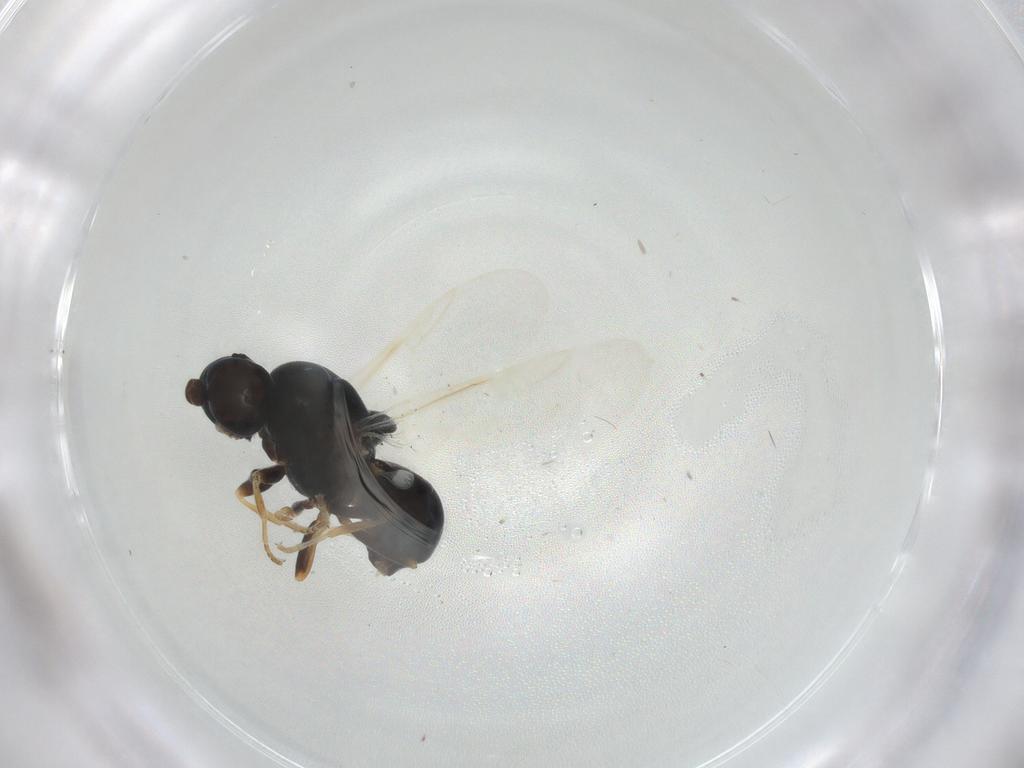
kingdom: Animalia
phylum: Arthropoda
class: Insecta
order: Diptera
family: Stratiomyidae
